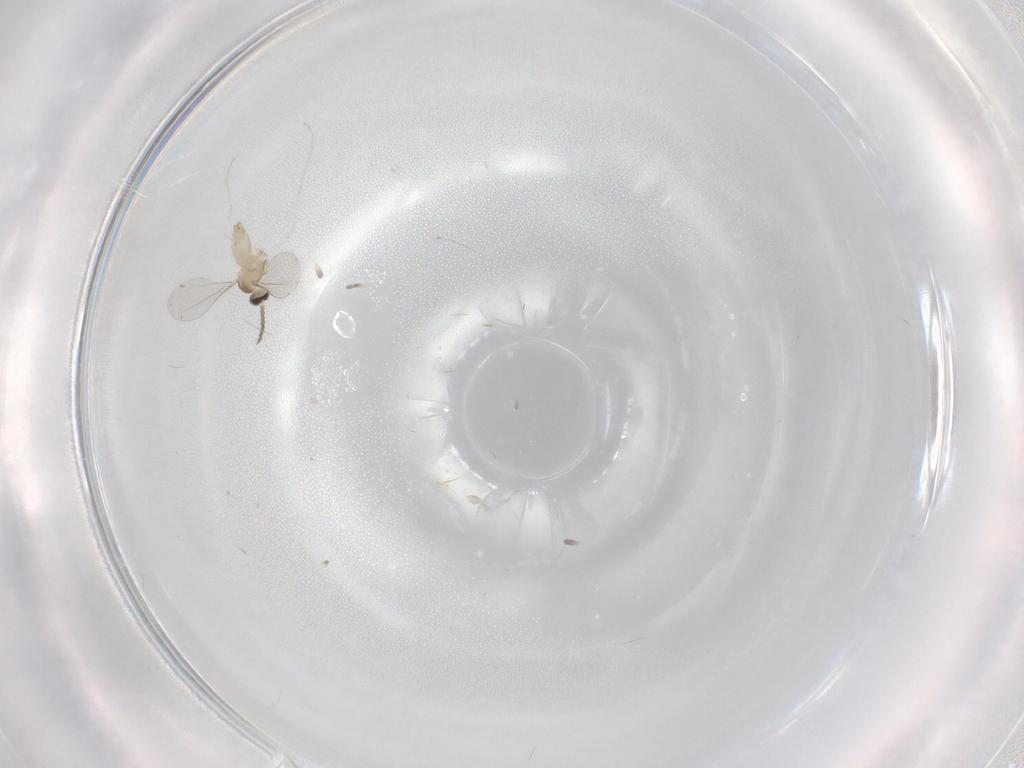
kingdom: Animalia
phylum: Arthropoda
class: Insecta
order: Diptera
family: Cecidomyiidae
